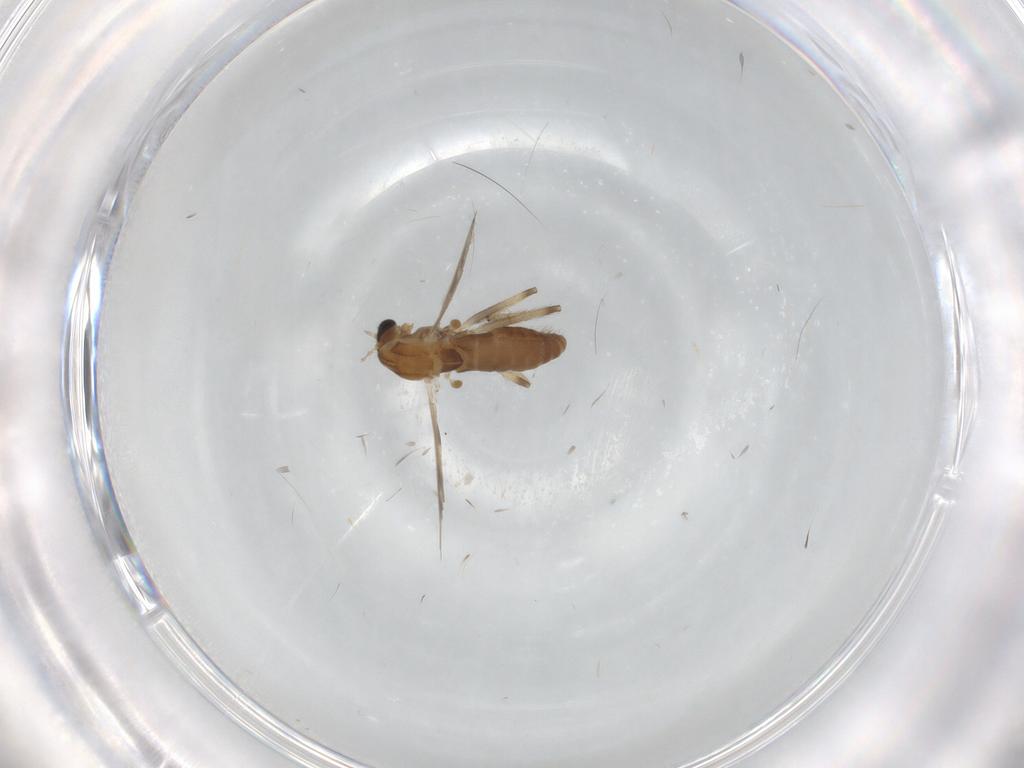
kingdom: Animalia
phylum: Arthropoda
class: Insecta
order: Diptera
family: Chironomidae
